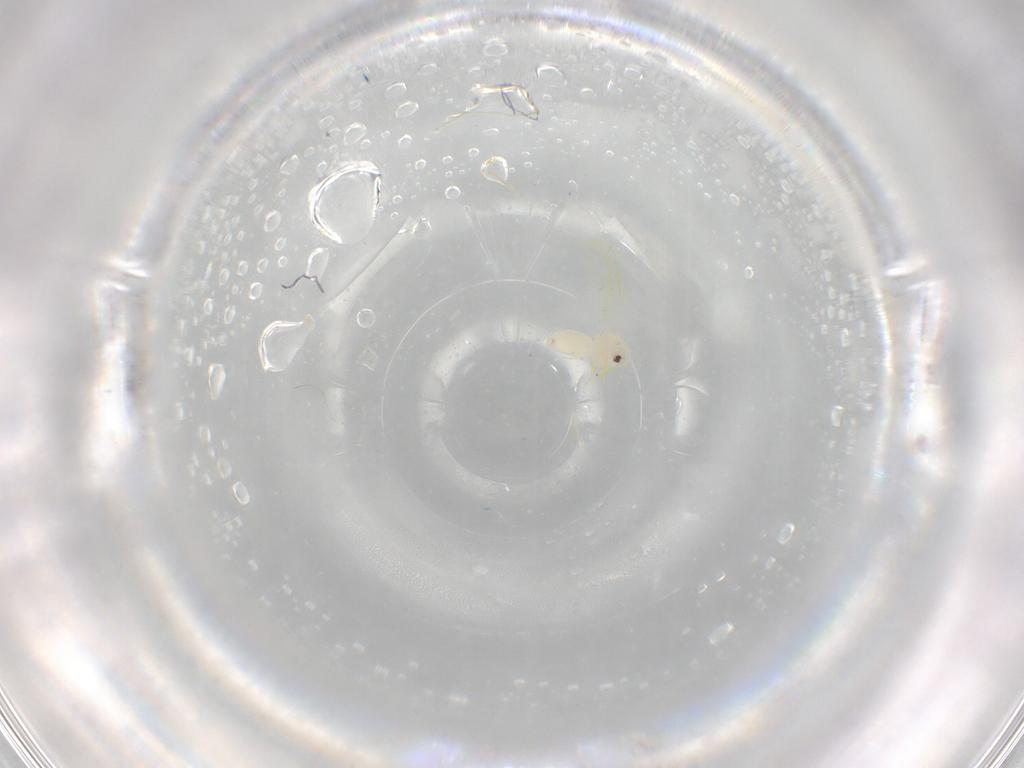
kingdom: Animalia
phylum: Arthropoda
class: Insecta
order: Hemiptera
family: Aleyrodidae
